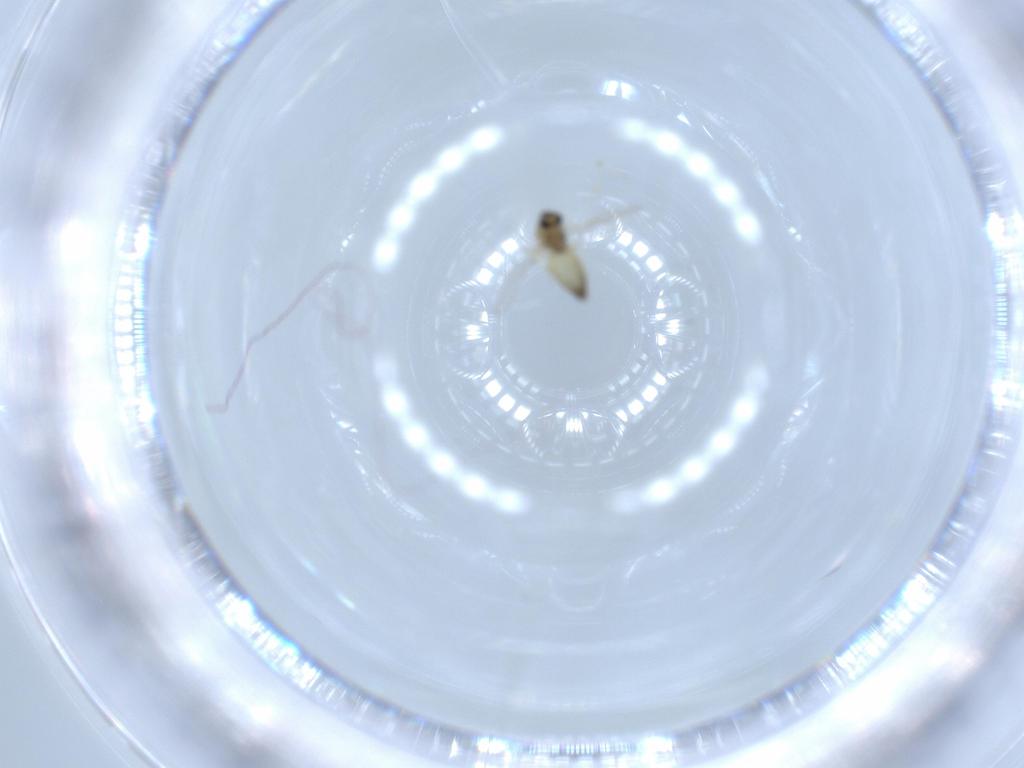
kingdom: Animalia
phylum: Arthropoda
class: Insecta
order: Diptera
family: Chironomidae
